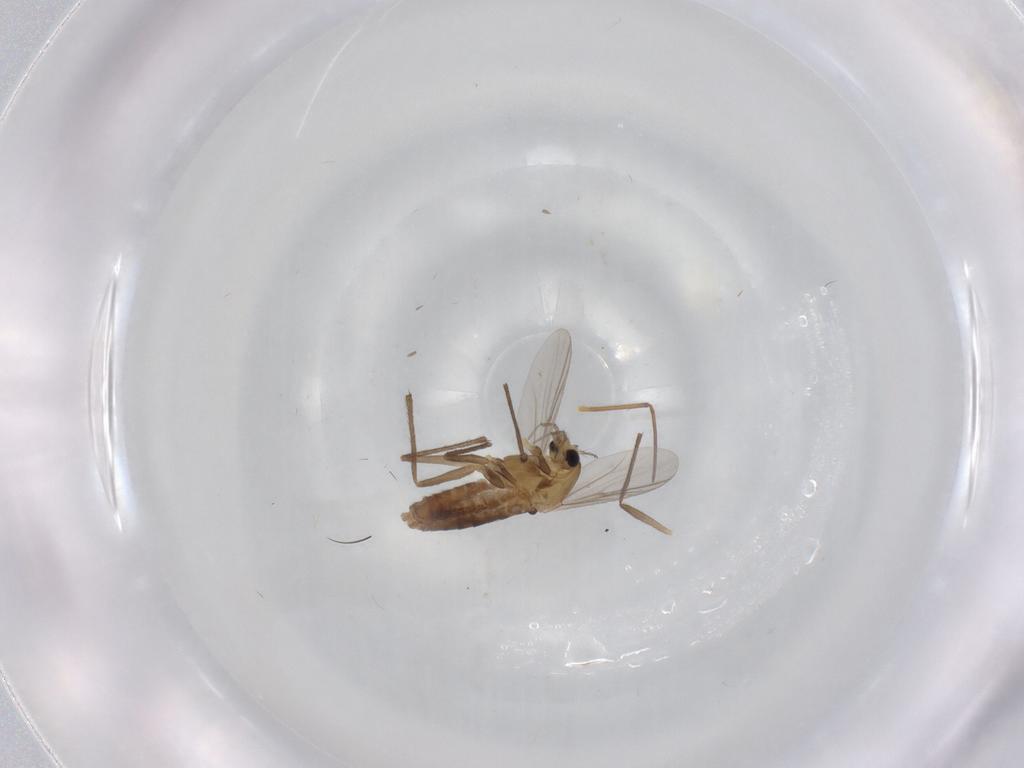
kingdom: Animalia
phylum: Arthropoda
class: Insecta
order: Diptera
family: Chironomidae
